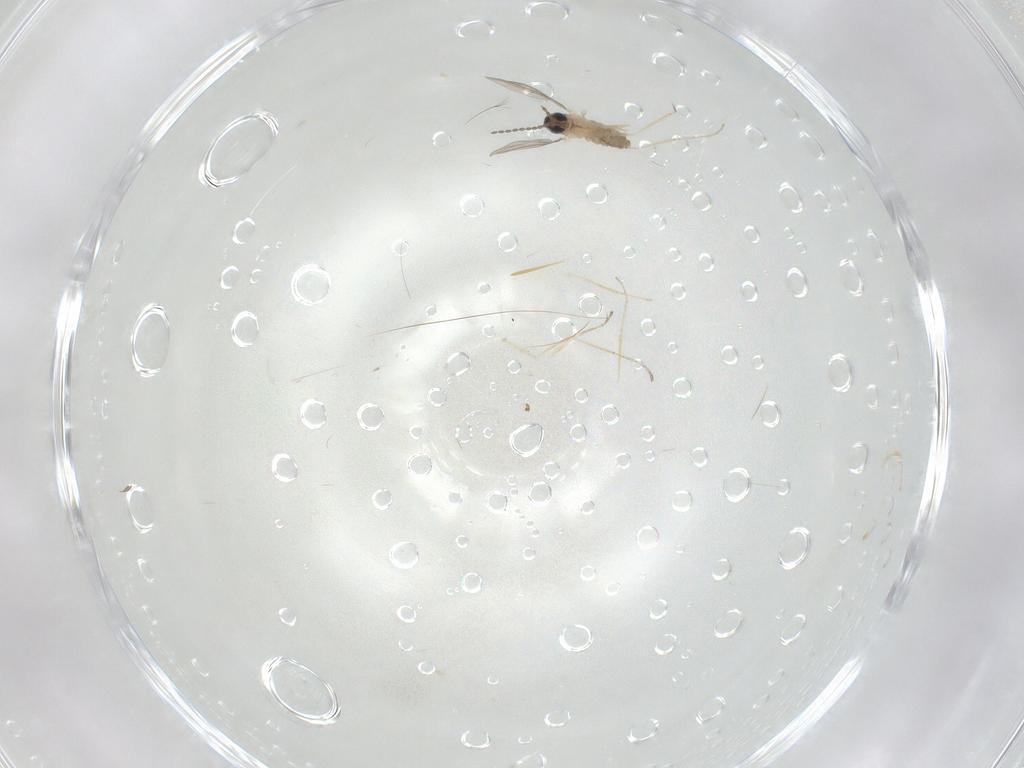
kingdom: Animalia
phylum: Arthropoda
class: Insecta
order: Diptera
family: Cecidomyiidae
